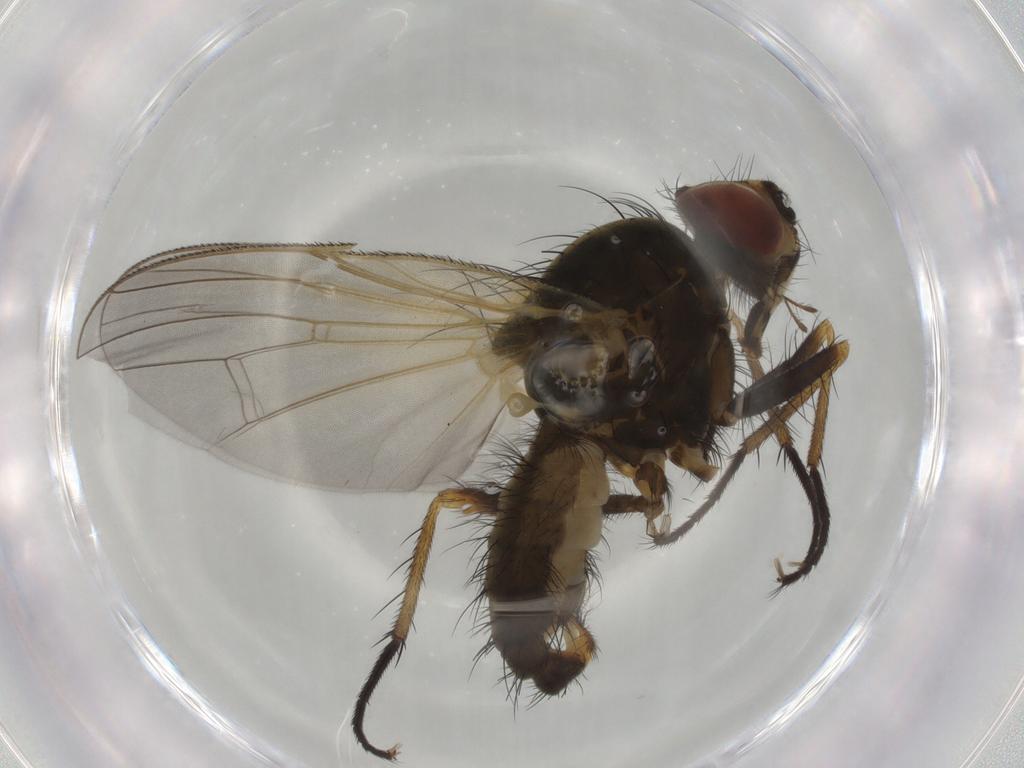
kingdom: Animalia
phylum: Arthropoda
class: Insecta
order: Diptera
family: Anthomyiidae
